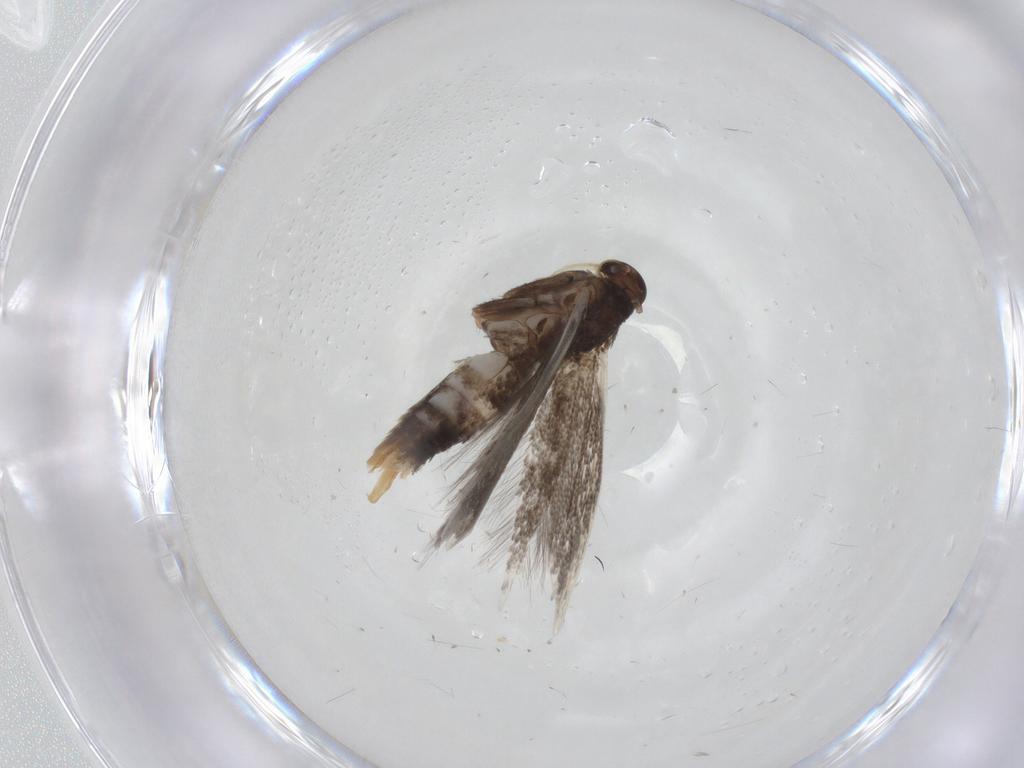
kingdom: Animalia
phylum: Arthropoda
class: Insecta
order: Lepidoptera
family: Elachistidae
